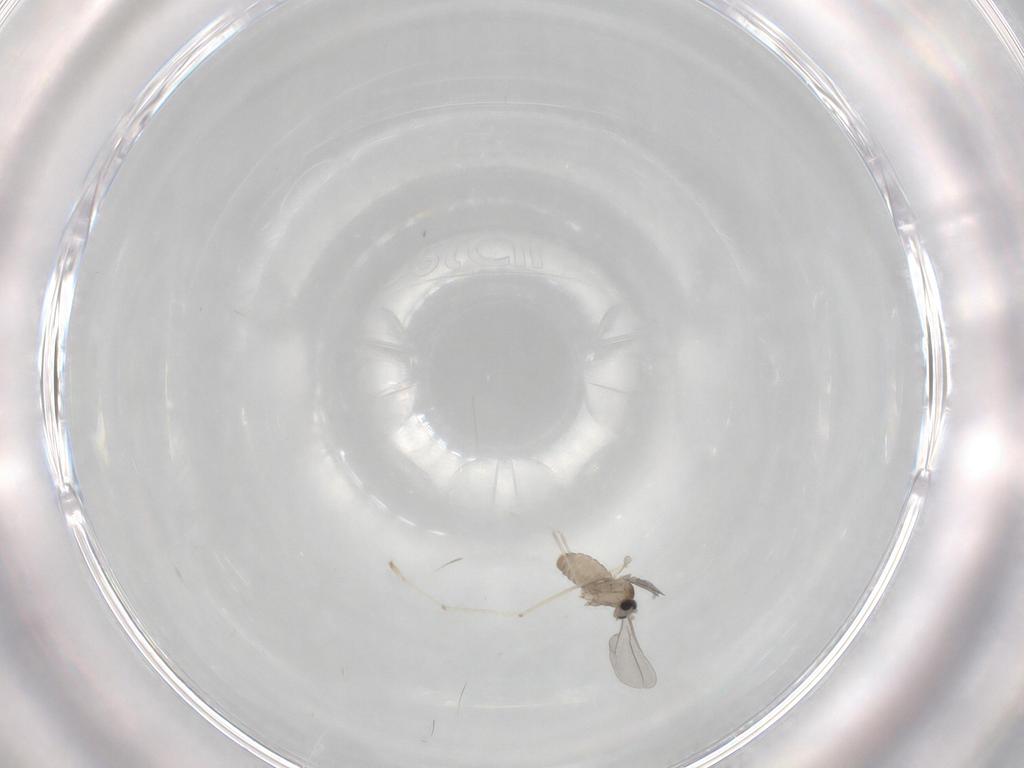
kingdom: Animalia
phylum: Arthropoda
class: Insecta
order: Diptera
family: Cecidomyiidae
